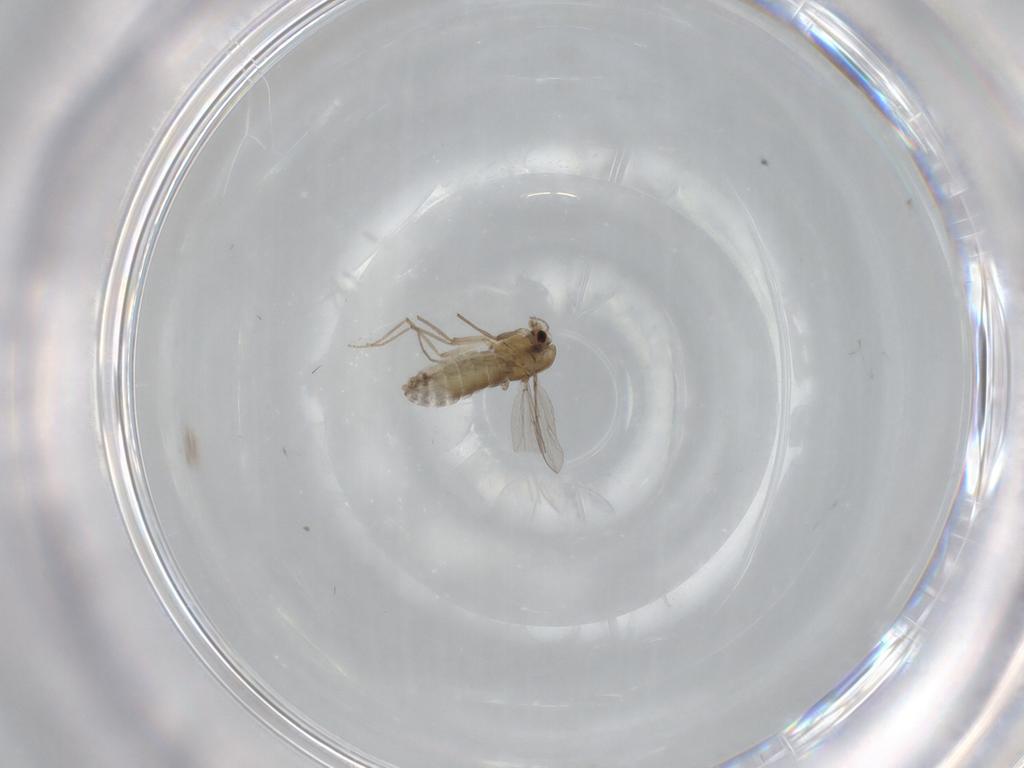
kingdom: Animalia
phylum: Arthropoda
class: Insecta
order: Diptera
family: Chironomidae
